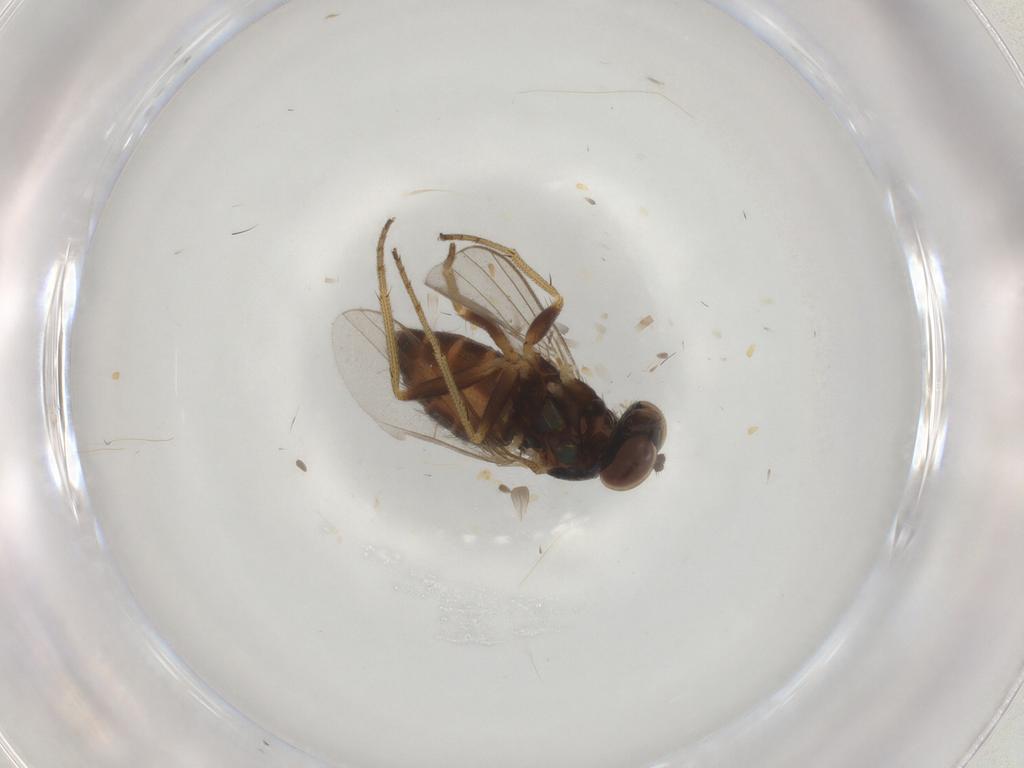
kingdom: Animalia
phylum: Arthropoda
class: Insecta
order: Diptera
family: Dolichopodidae
